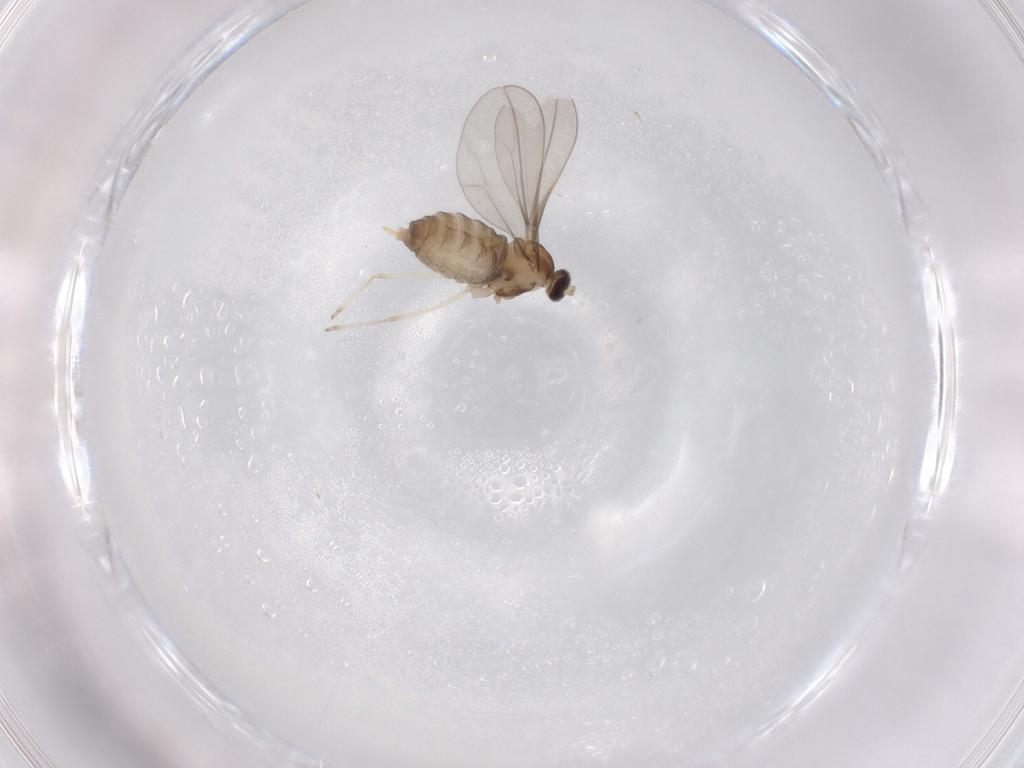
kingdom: Animalia
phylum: Arthropoda
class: Insecta
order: Diptera
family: Cecidomyiidae
